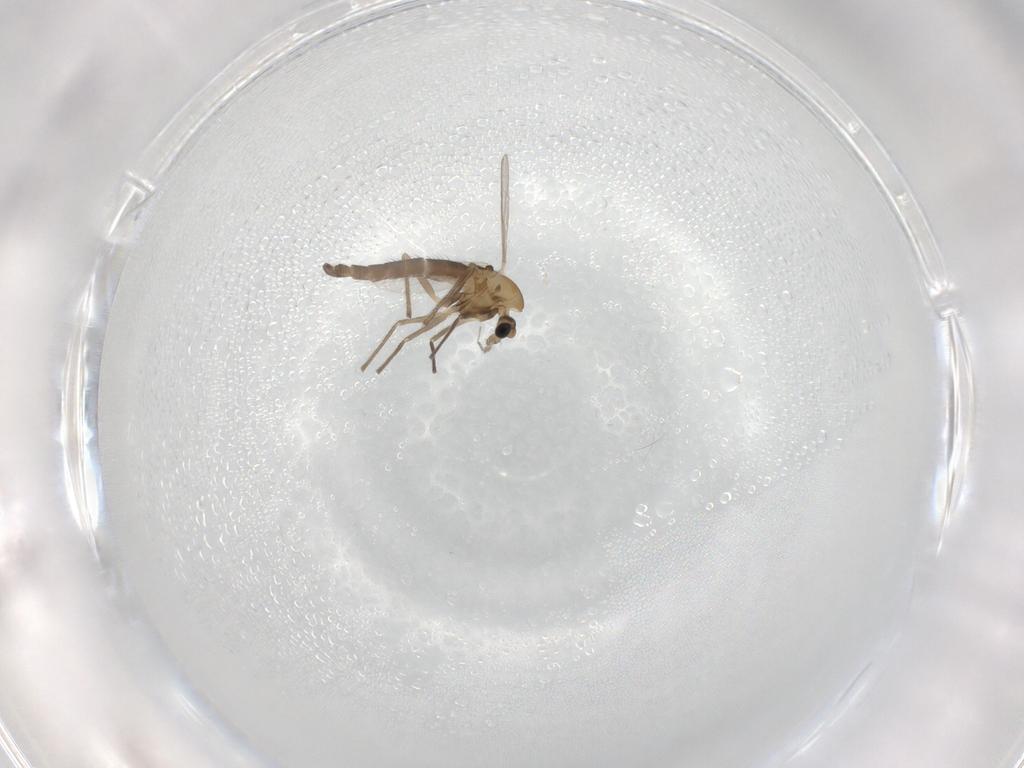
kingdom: Animalia
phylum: Arthropoda
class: Insecta
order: Diptera
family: Chironomidae
